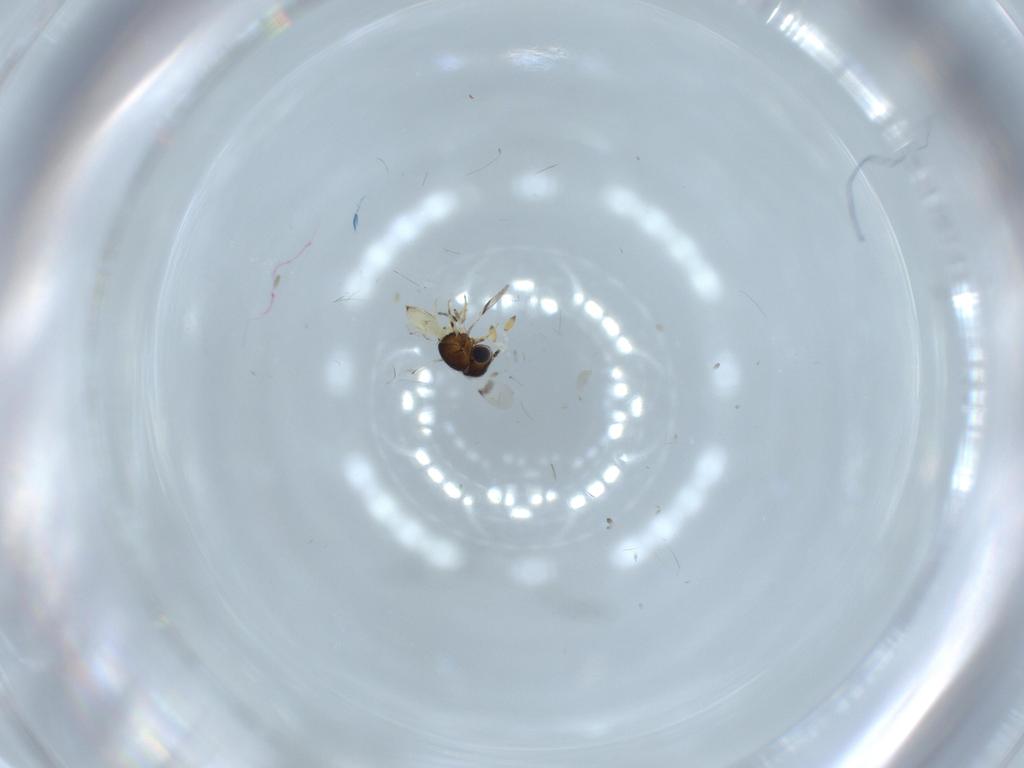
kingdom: Animalia
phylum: Arthropoda
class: Insecta
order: Hymenoptera
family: Scelionidae
